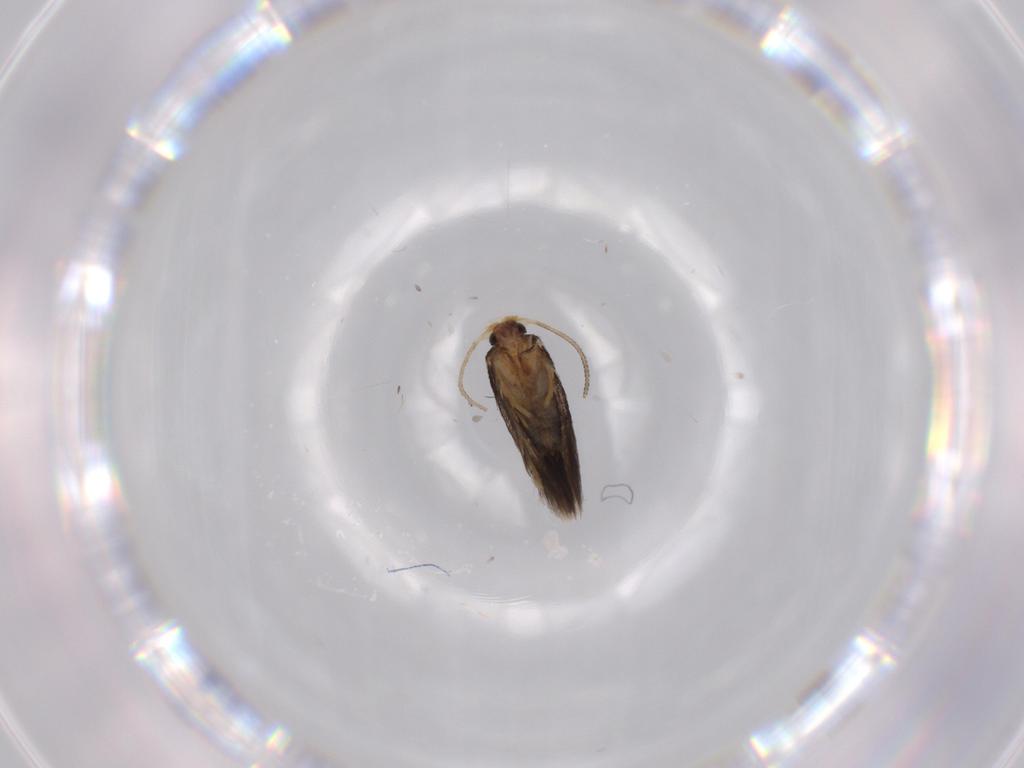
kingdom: Animalia
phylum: Arthropoda
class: Insecta
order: Lepidoptera
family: Nepticulidae
